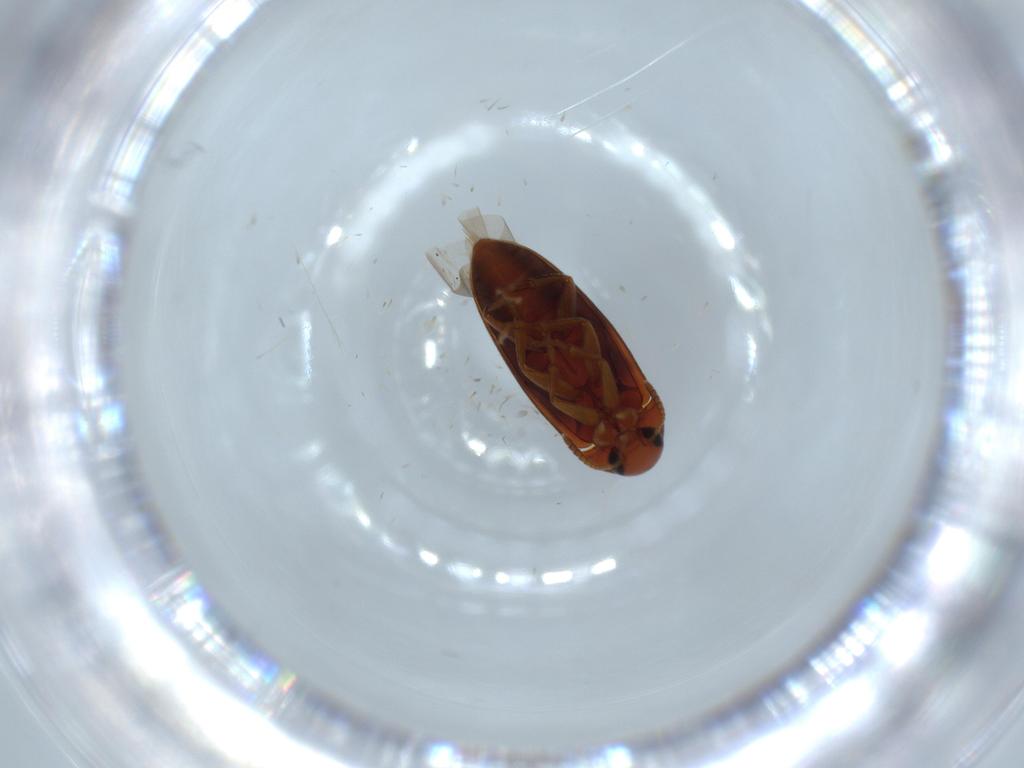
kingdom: Animalia
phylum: Arthropoda
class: Insecta
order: Coleoptera
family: Scraptiidae
